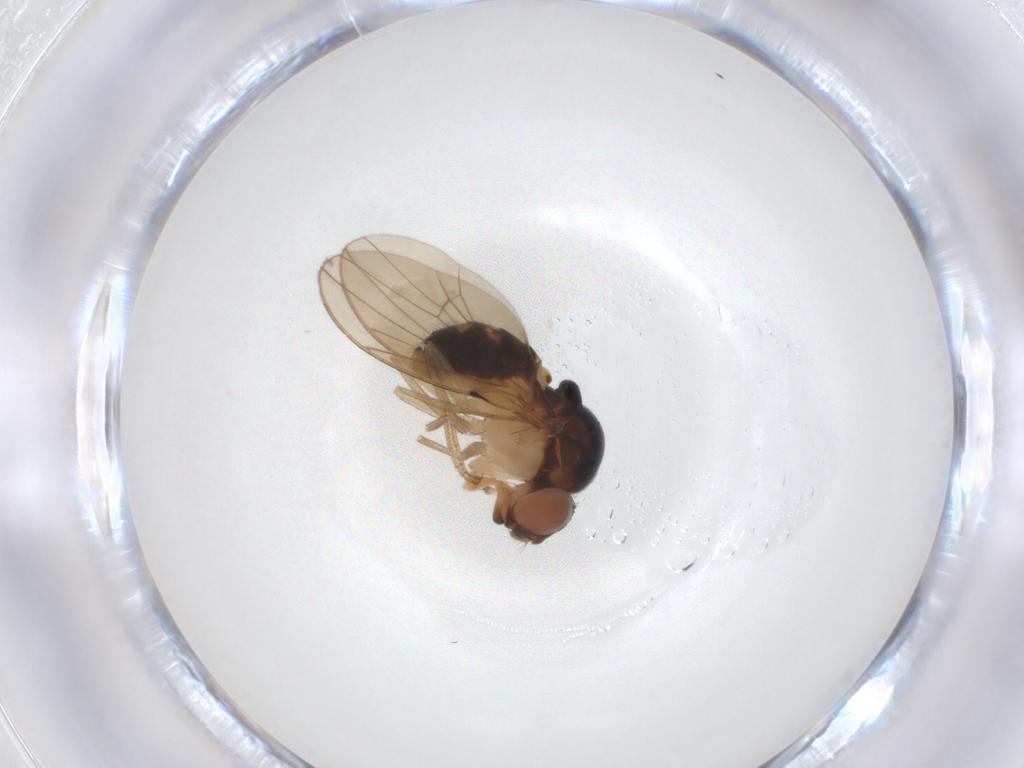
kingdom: Animalia
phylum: Arthropoda
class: Insecta
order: Diptera
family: Drosophilidae
